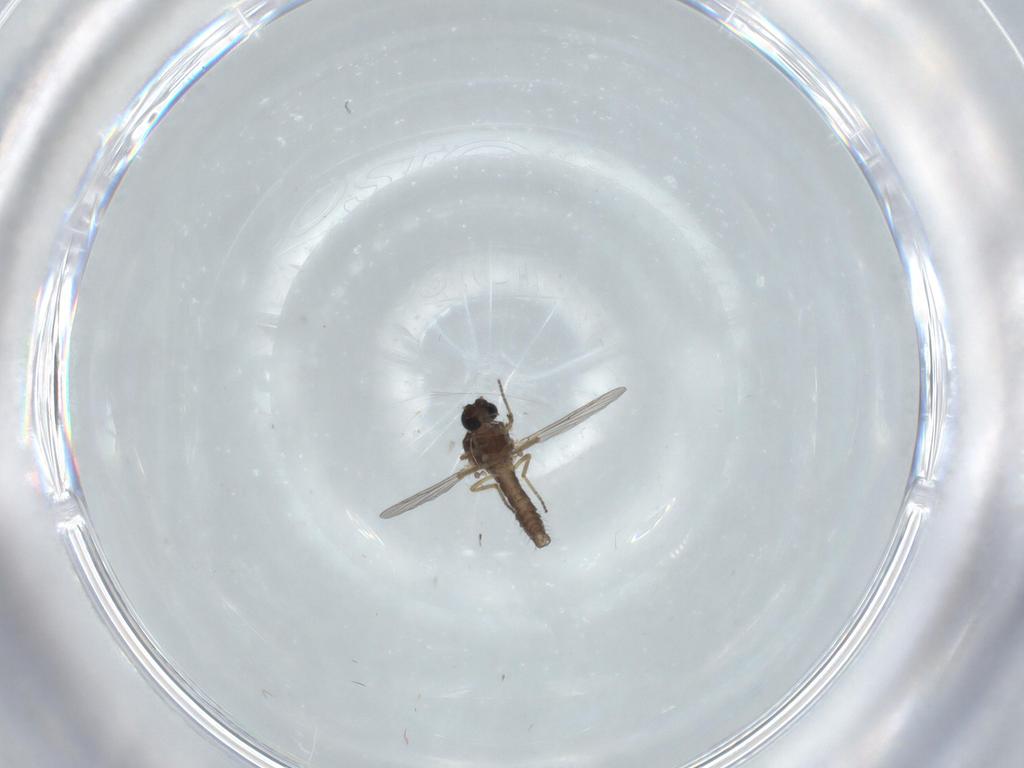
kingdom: Animalia
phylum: Arthropoda
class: Insecta
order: Diptera
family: Ceratopogonidae
